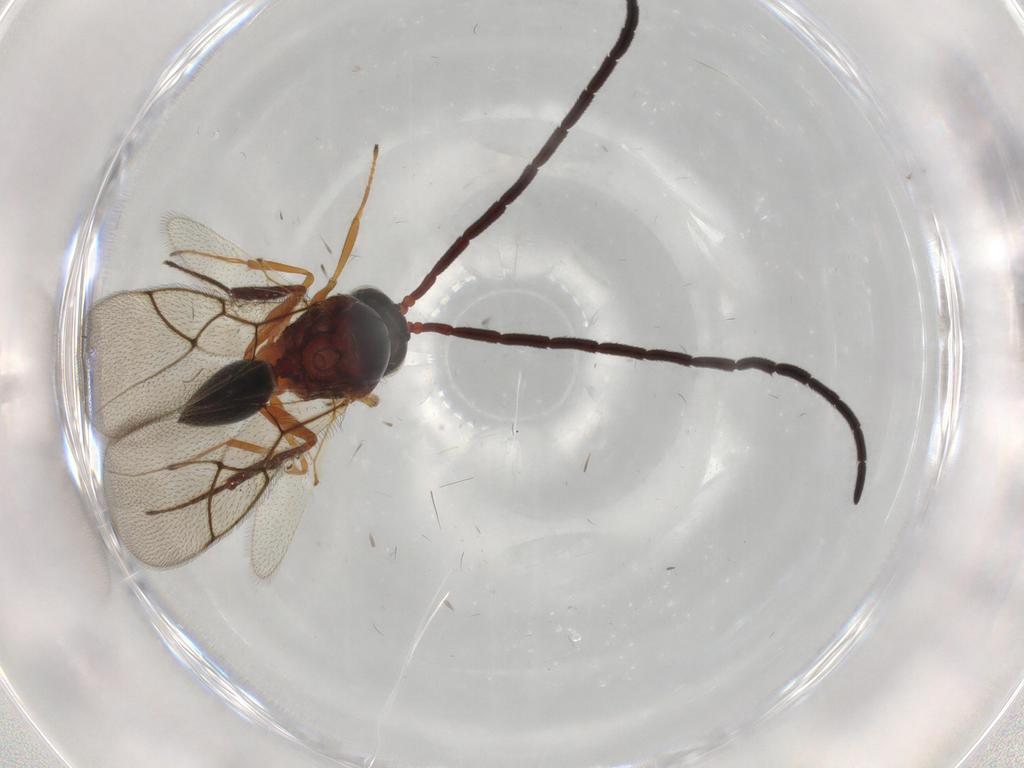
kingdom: Animalia
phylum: Arthropoda
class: Insecta
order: Hymenoptera
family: Figitidae
